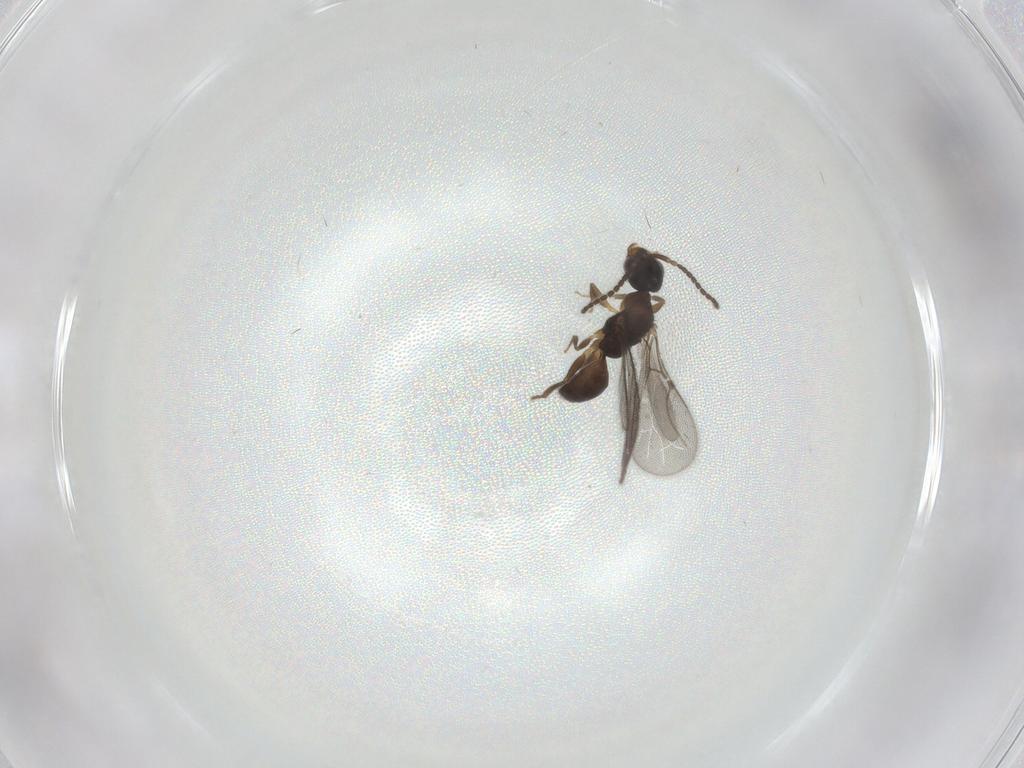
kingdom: Animalia
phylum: Arthropoda
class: Insecta
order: Hymenoptera
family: Bethylidae
